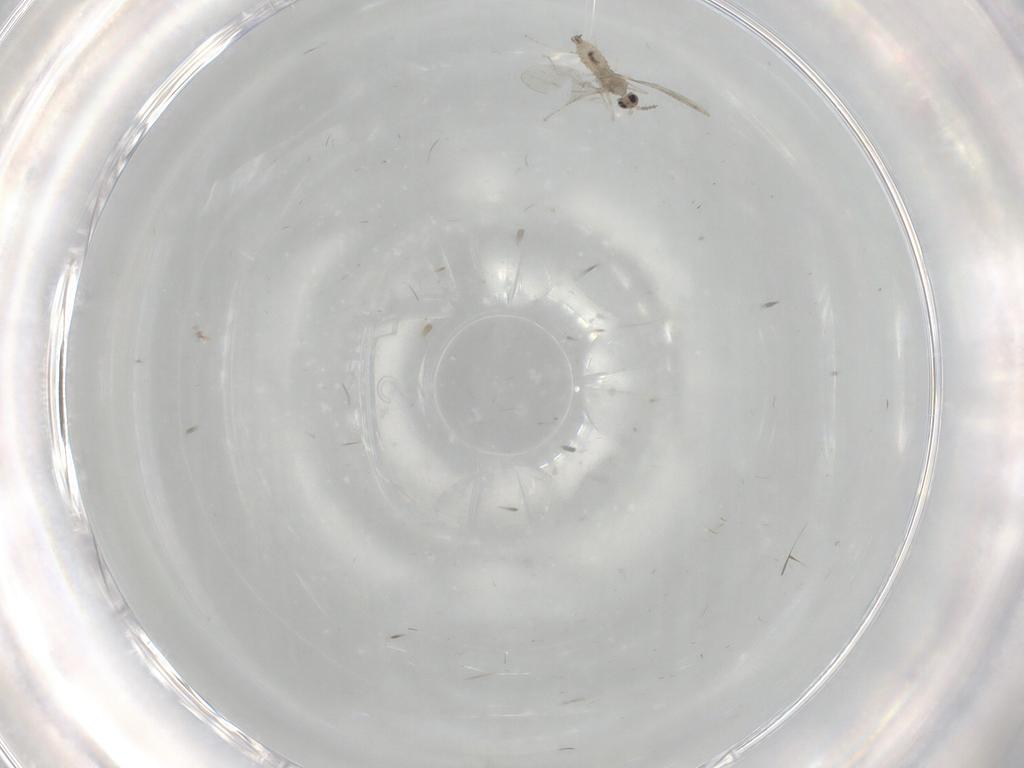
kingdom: Animalia
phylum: Arthropoda
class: Insecta
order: Diptera
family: Chironomidae
